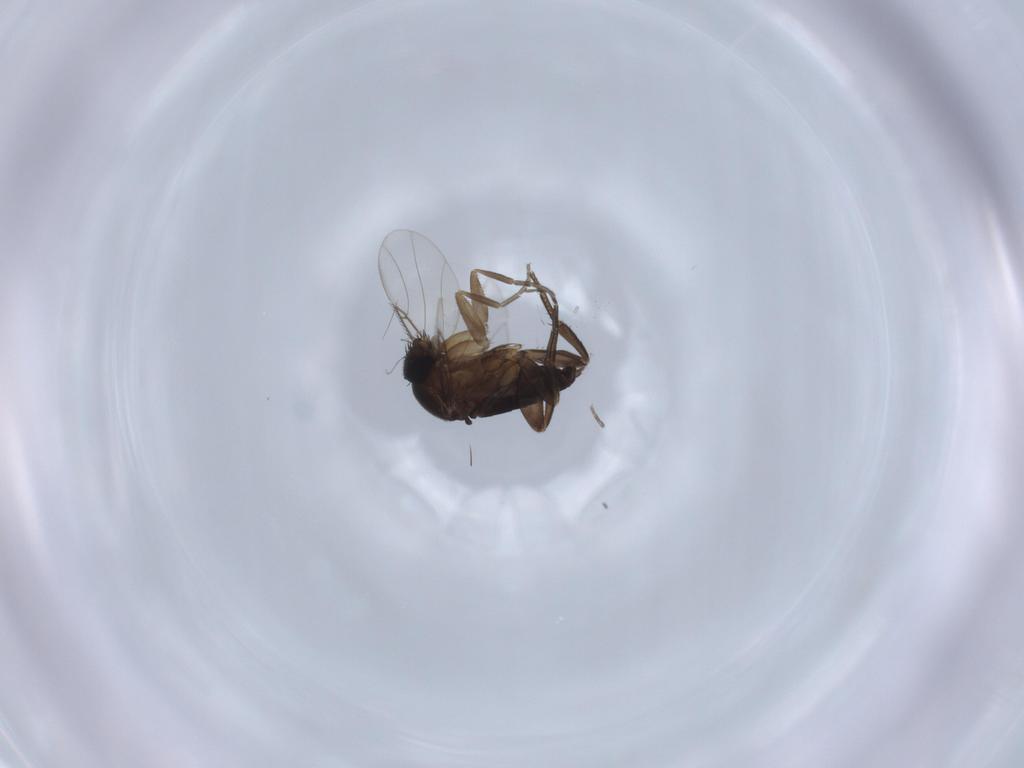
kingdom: Animalia
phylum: Arthropoda
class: Insecta
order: Diptera
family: Phoridae
